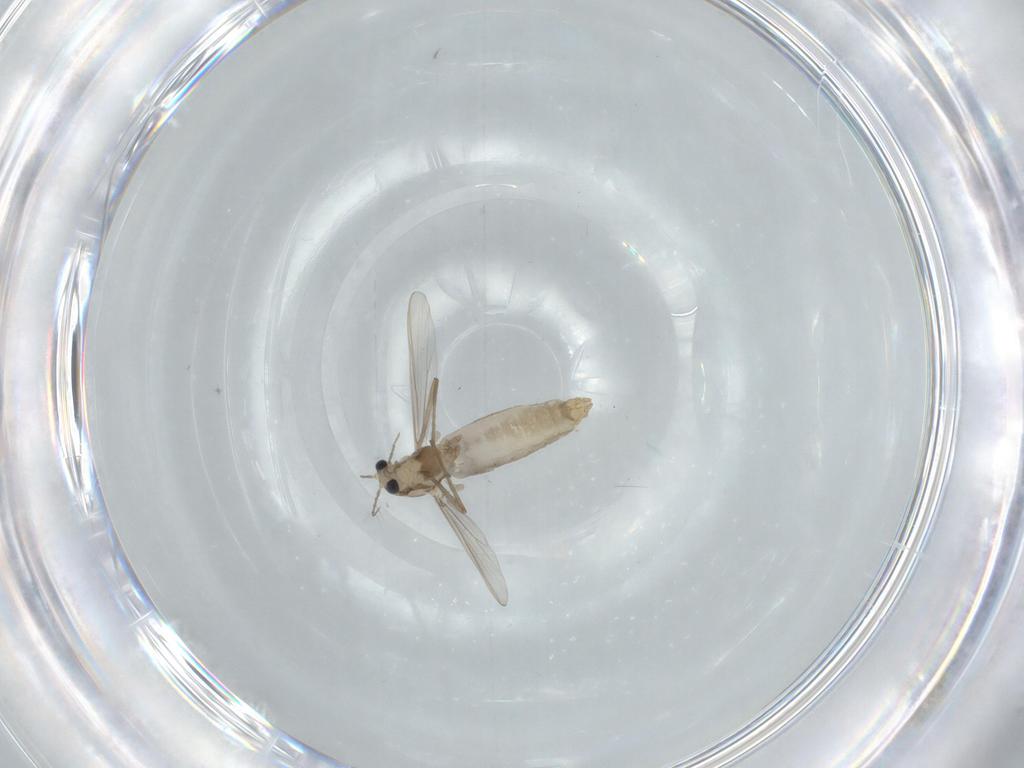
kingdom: Animalia
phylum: Arthropoda
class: Insecta
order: Diptera
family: Chironomidae
